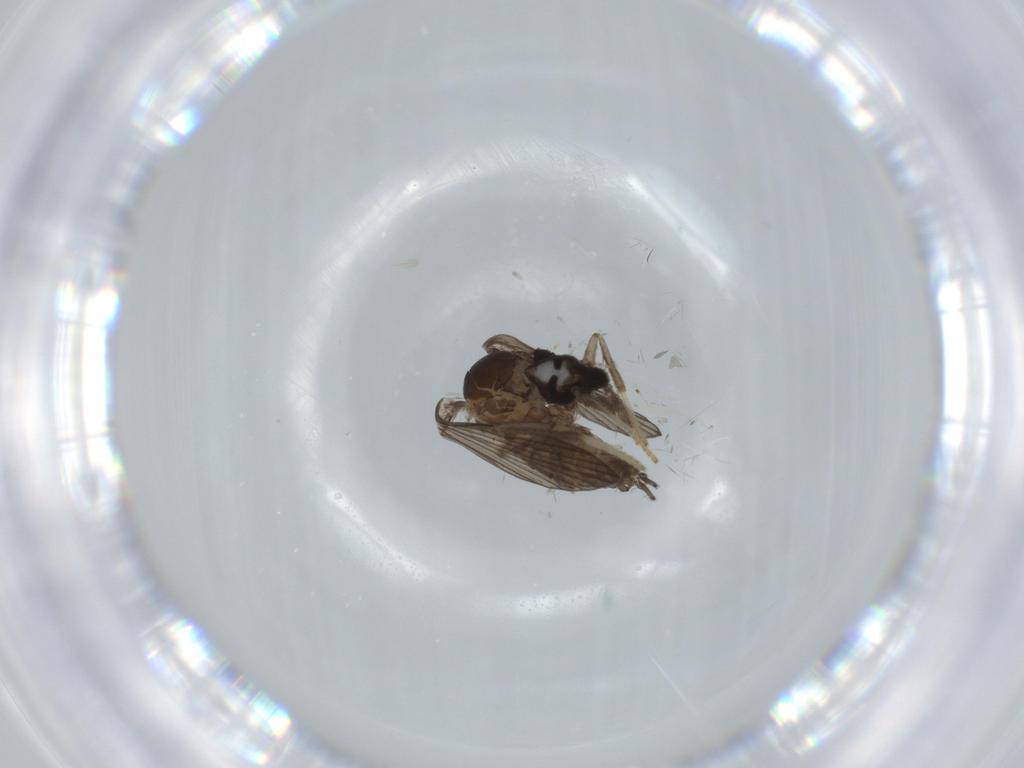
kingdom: Animalia
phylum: Arthropoda
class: Insecta
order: Diptera
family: Psychodidae
